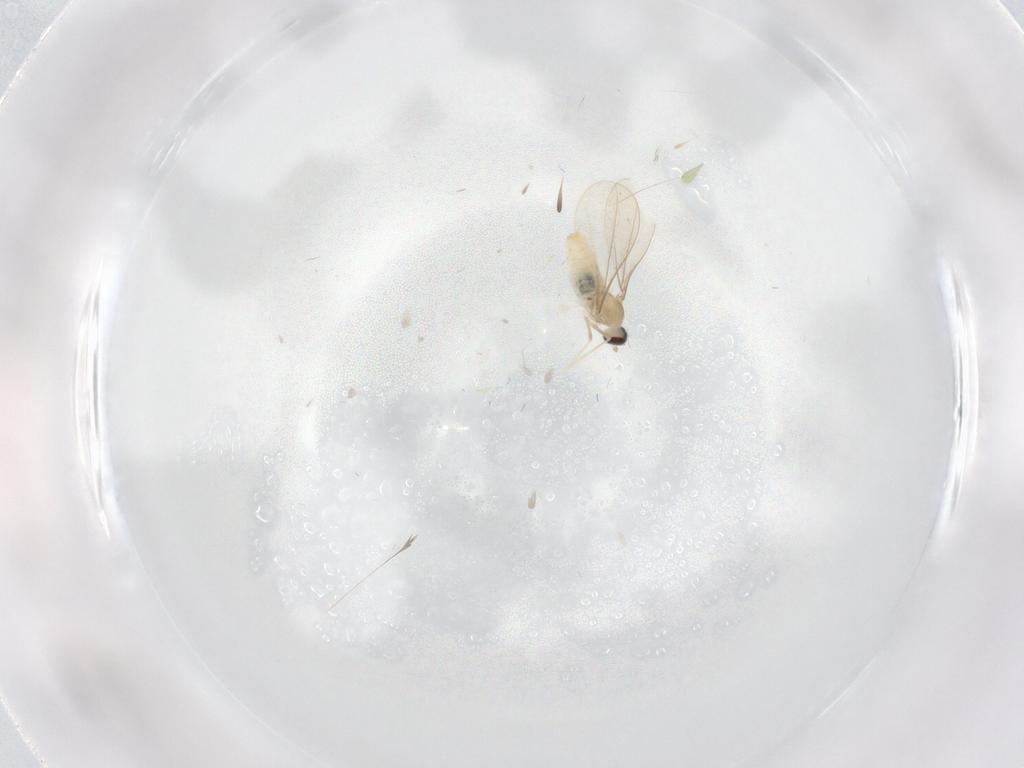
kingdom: Animalia
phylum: Arthropoda
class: Insecta
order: Diptera
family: Cecidomyiidae
